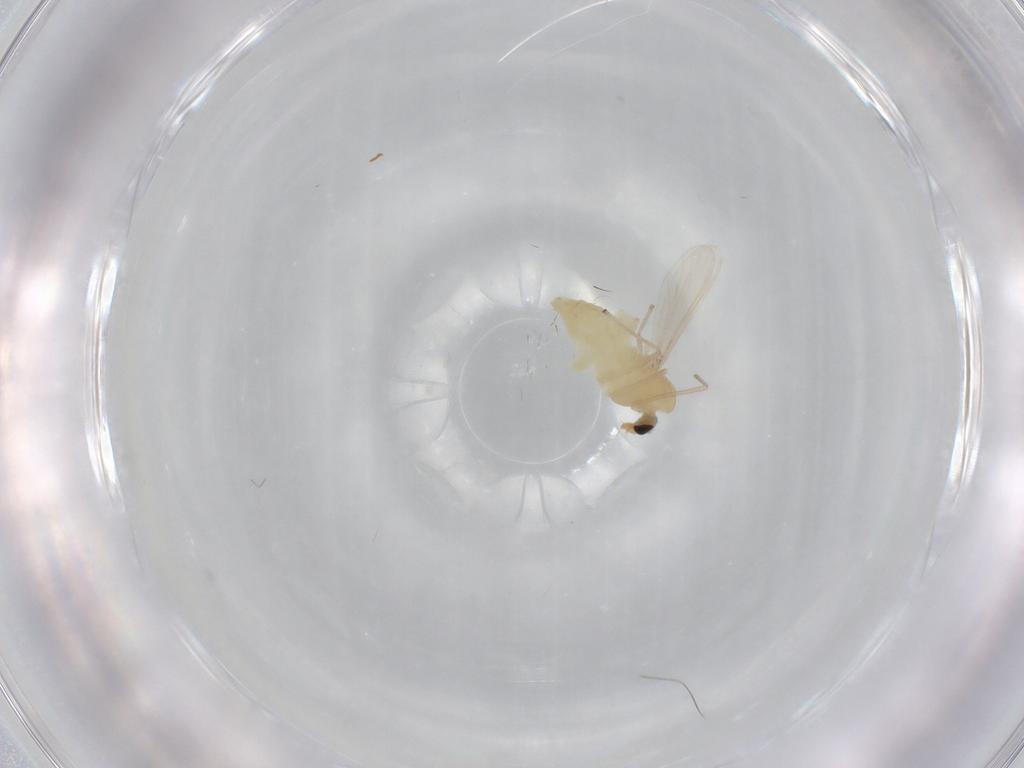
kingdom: Animalia
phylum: Arthropoda
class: Insecta
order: Diptera
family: Chironomidae
